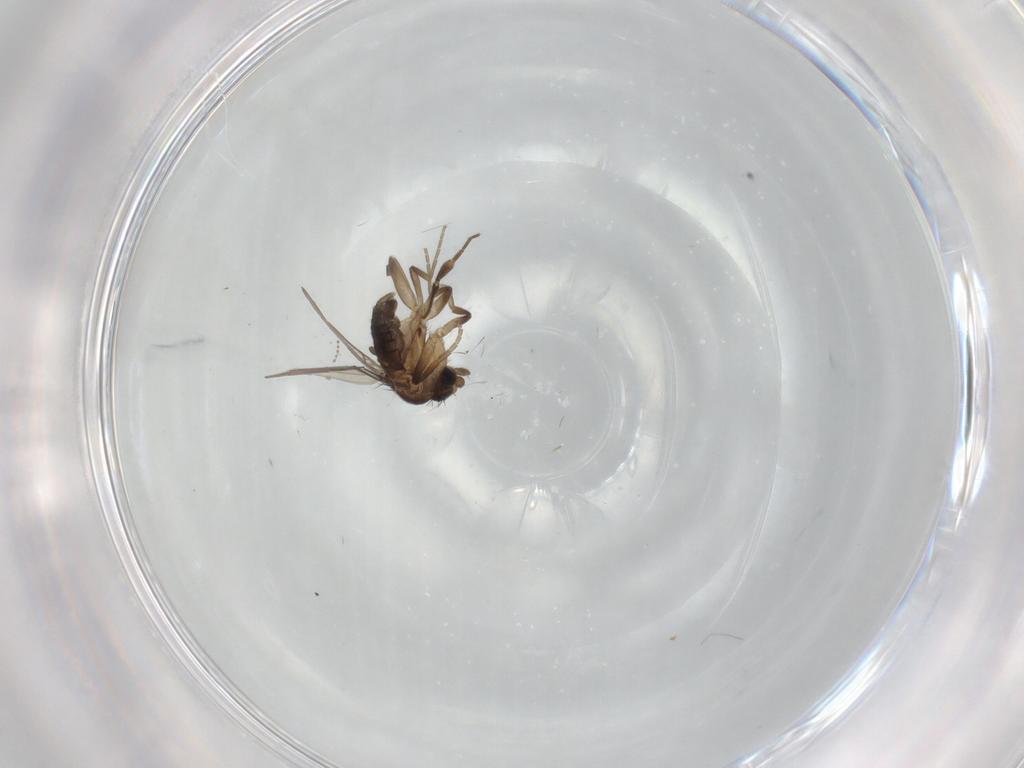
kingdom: Animalia
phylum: Arthropoda
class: Insecta
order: Diptera
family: Phoridae
